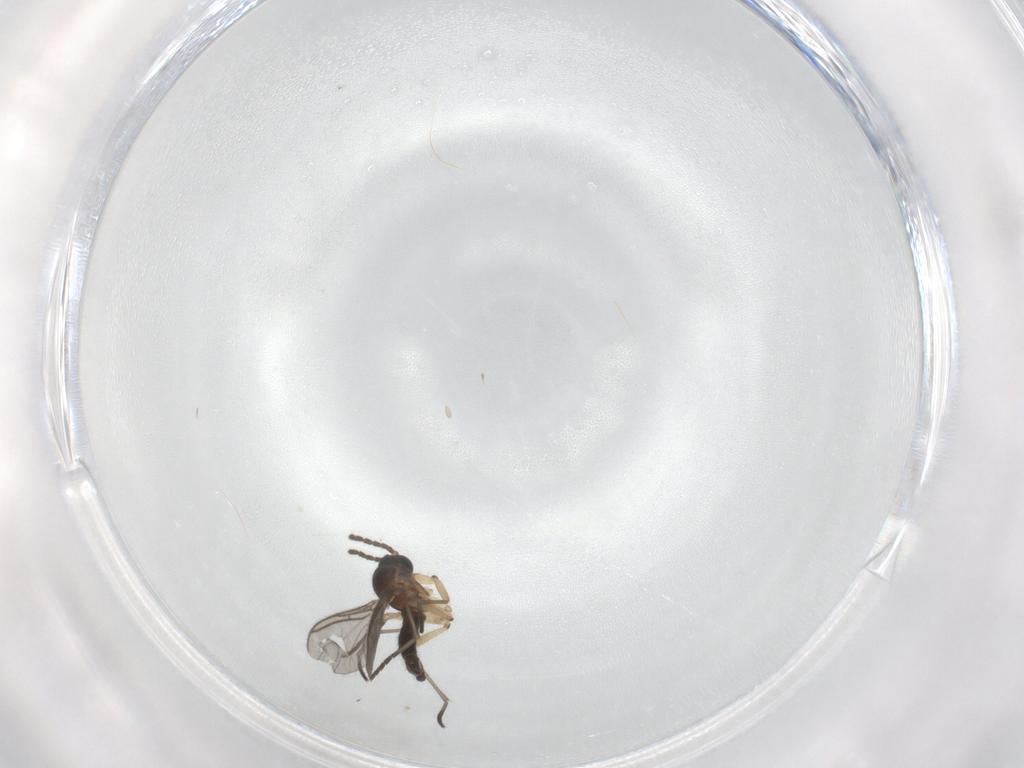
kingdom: Animalia
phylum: Arthropoda
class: Insecta
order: Diptera
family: Sciaridae
